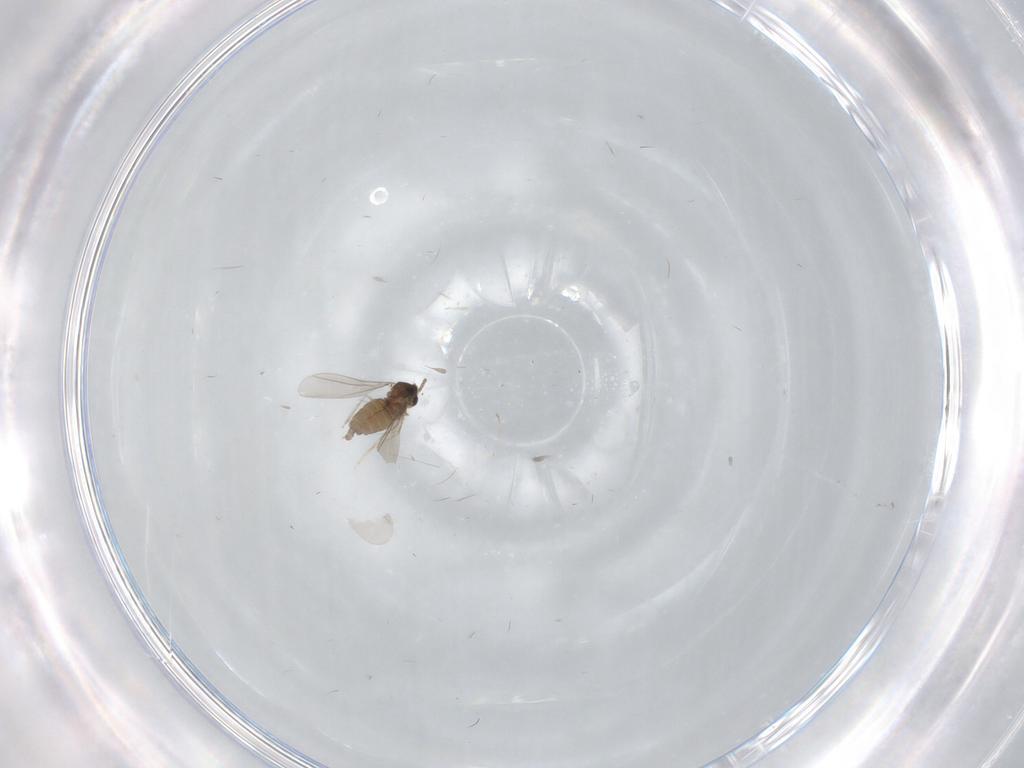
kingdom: Animalia
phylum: Arthropoda
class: Insecta
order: Diptera
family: Cecidomyiidae
